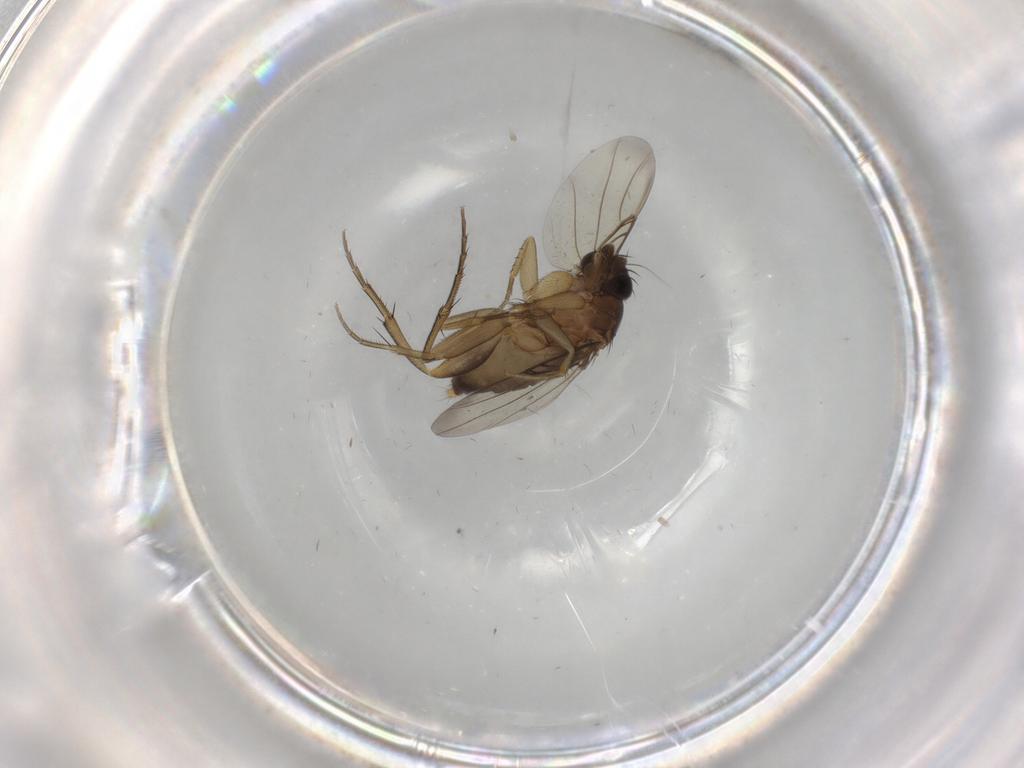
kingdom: Animalia
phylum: Arthropoda
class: Insecta
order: Diptera
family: Phoridae
